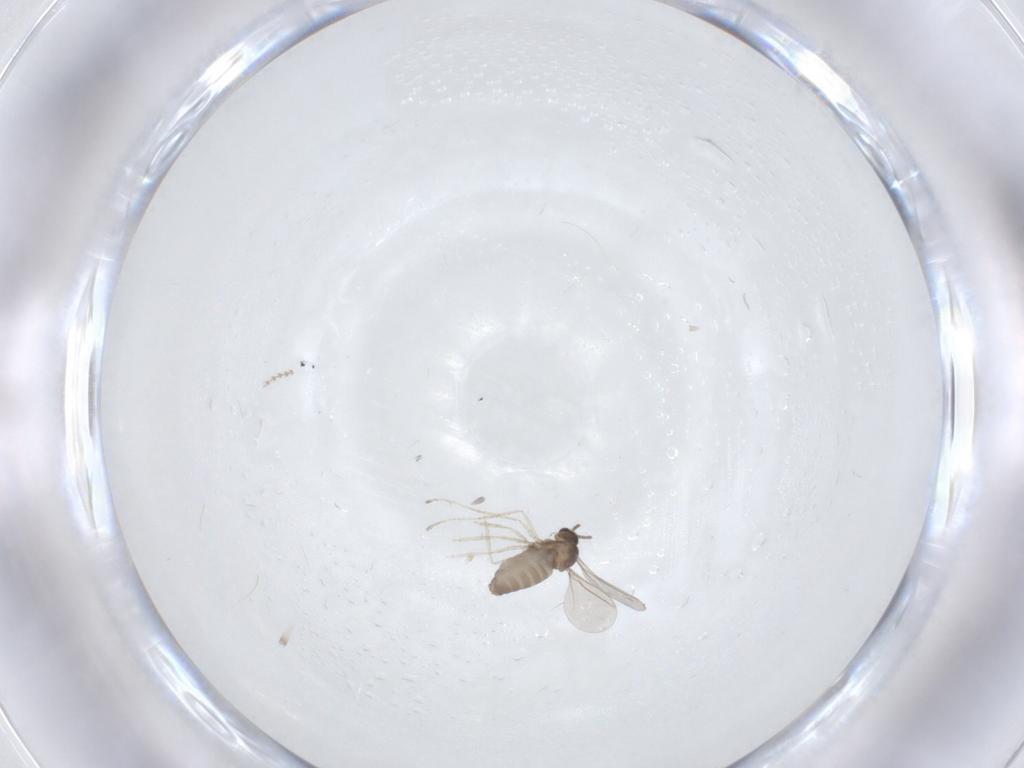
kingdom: Animalia
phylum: Arthropoda
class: Insecta
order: Diptera
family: Cecidomyiidae
